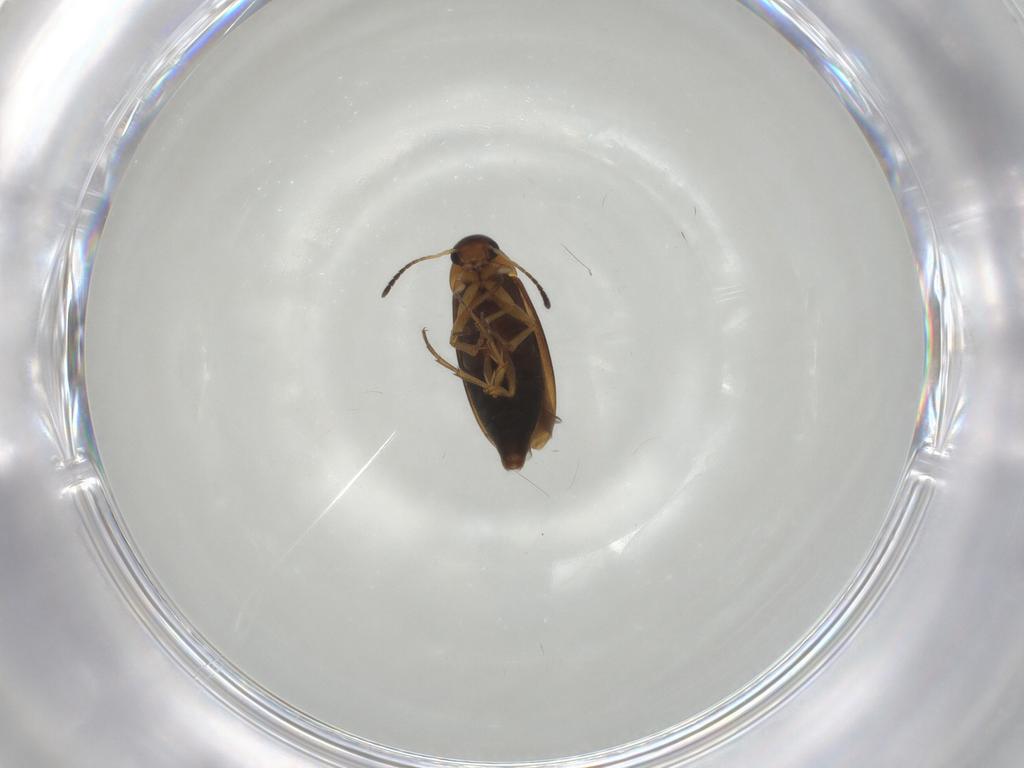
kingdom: Animalia
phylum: Arthropoda
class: Insecta
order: Coleoptera
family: Scraptiidae
